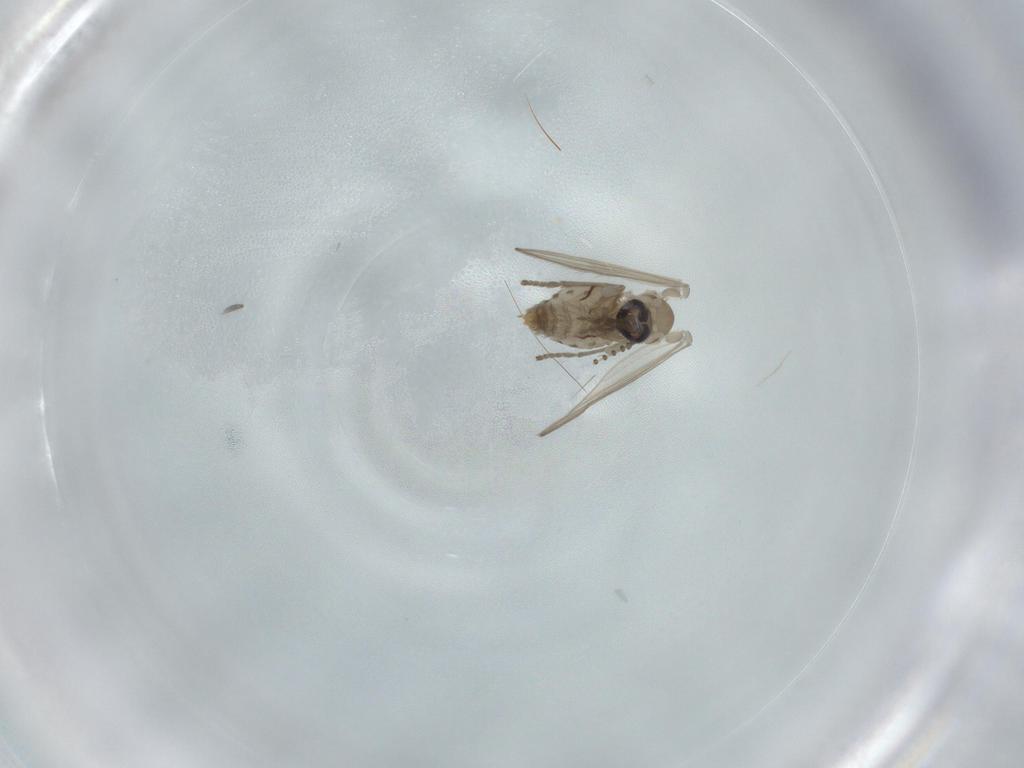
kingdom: Animalia
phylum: Arthropoda
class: Insecta
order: Diptera
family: Psychodidae
